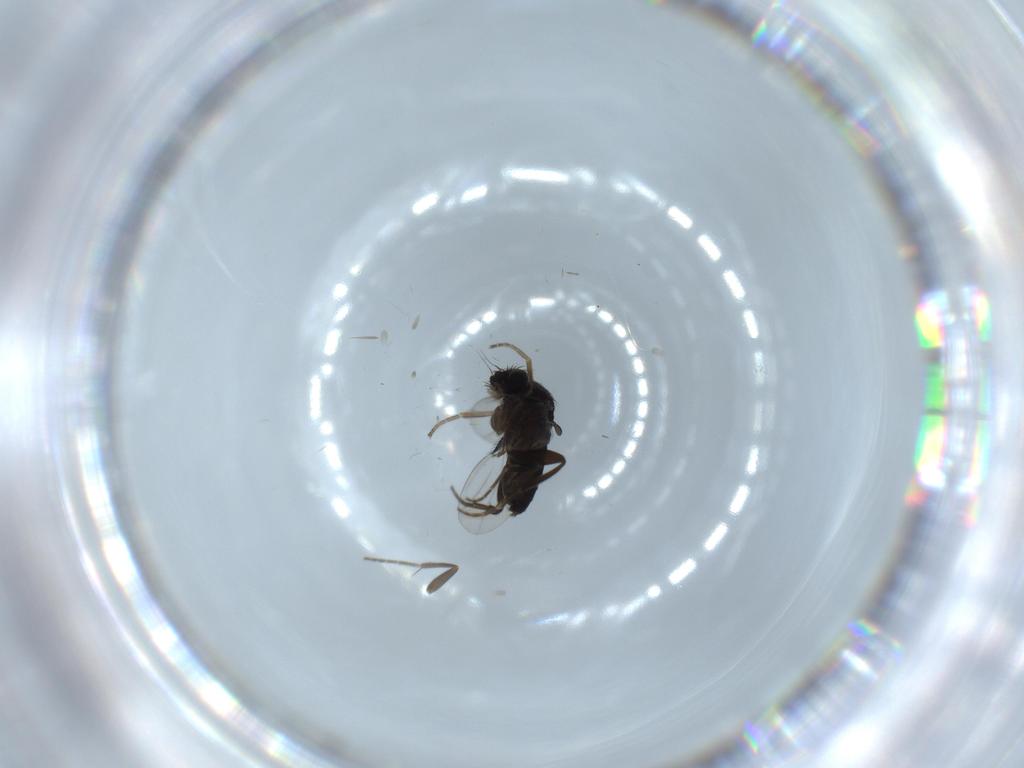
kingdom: Animalia
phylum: Arthropoda
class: Insecta
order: Diptera
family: Phoridae
